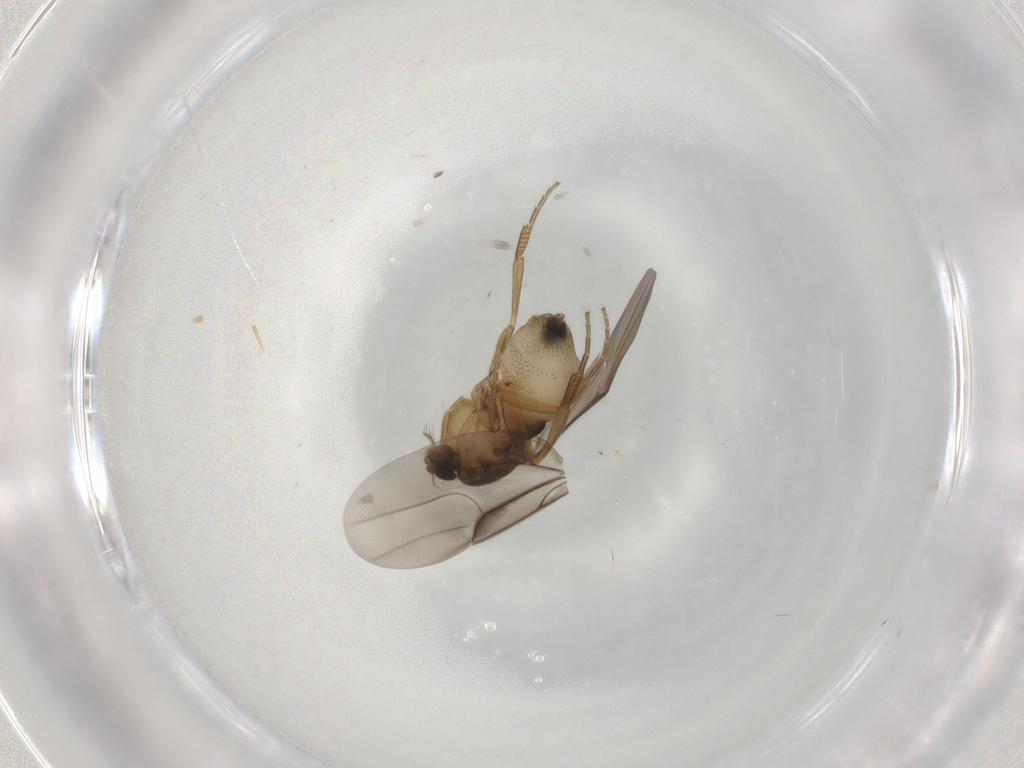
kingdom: Animalia
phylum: Arthropoda
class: Insecta
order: Diptera
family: Phoridae
